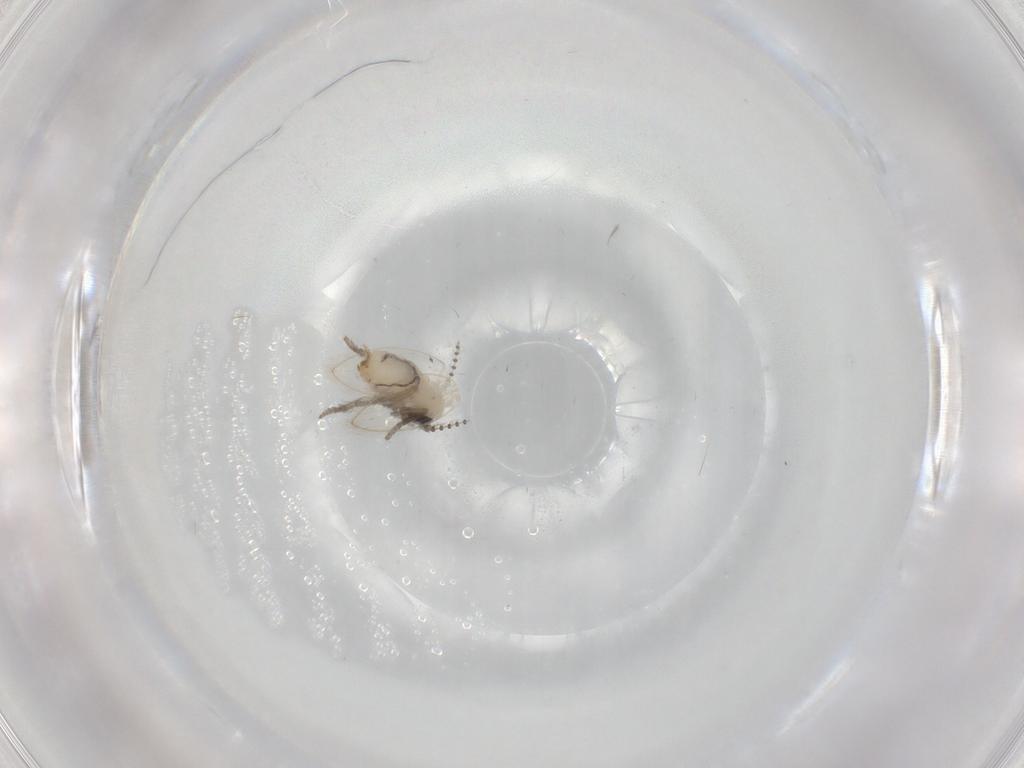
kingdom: Animalia
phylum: Arthropoda
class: Insecta
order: Diptera
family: Psychodidae
